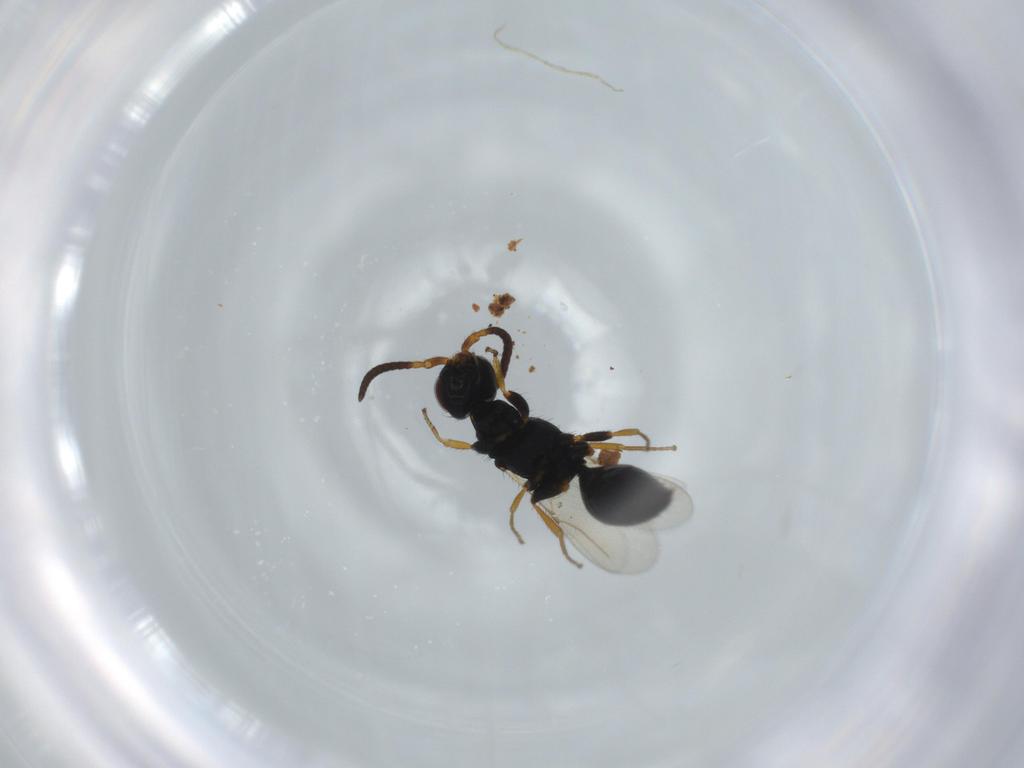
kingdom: Animalia
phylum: Arthropoda
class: Insecta
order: Hymenoptera
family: Bethylidae
